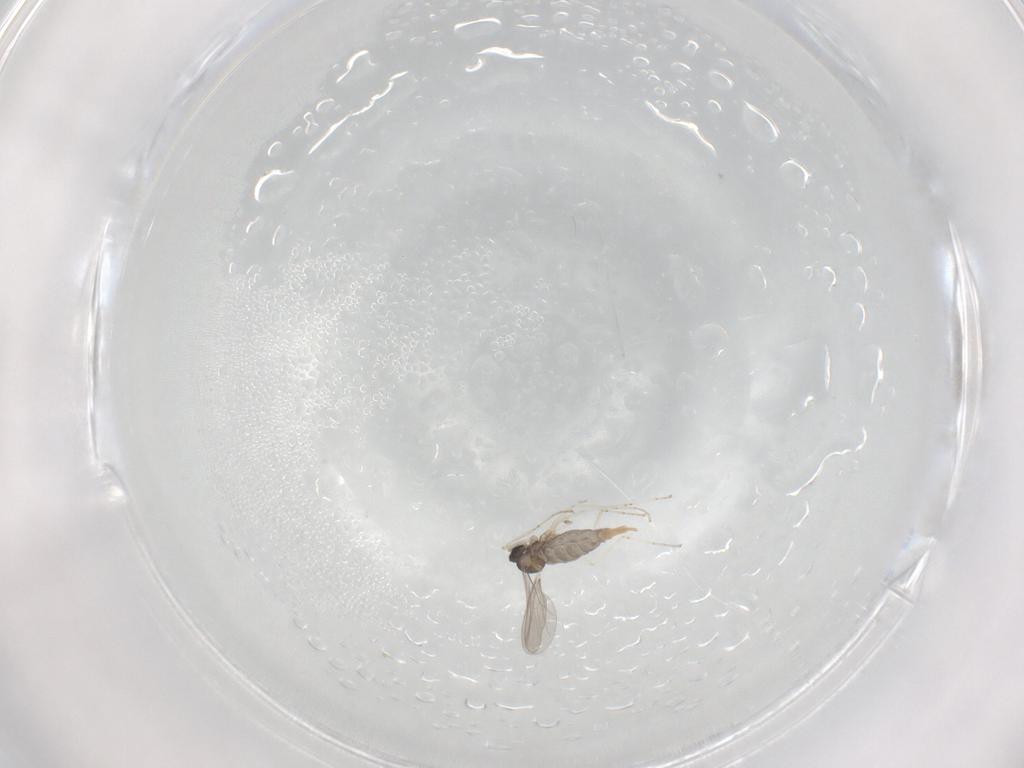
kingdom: Animalia
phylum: Arthropoda
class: Insecta
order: Diptera
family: Cecidomyiidae
